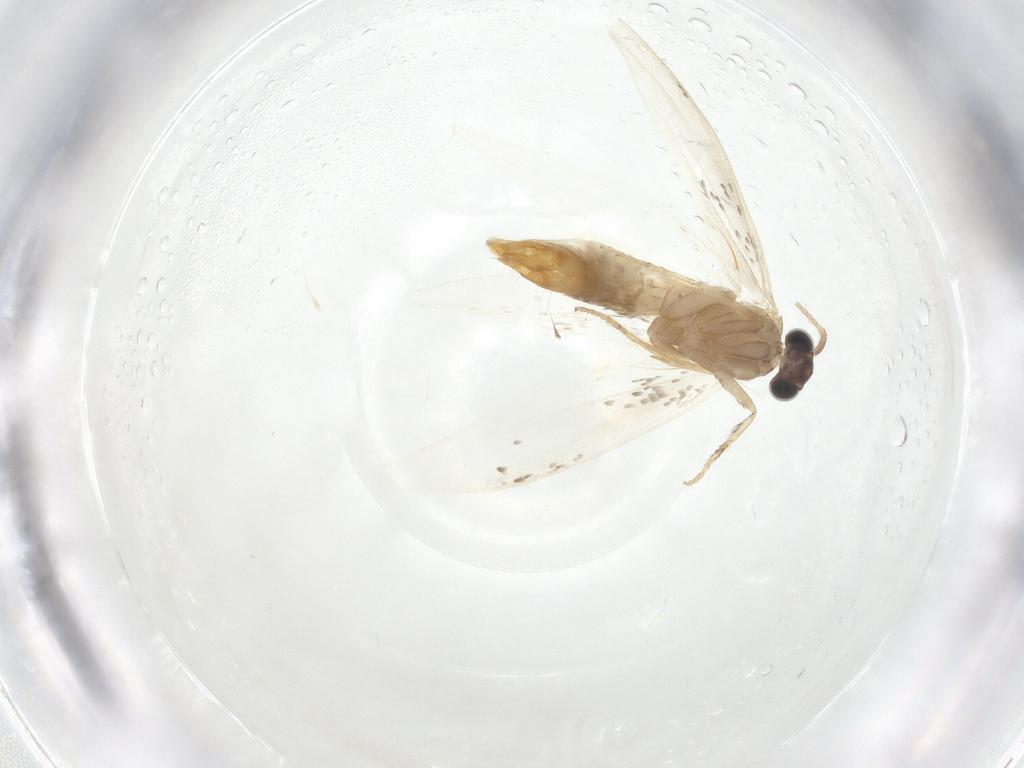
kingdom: Animalia
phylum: Arthropoda
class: Insecta
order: Lepidoptera
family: Tineidae
